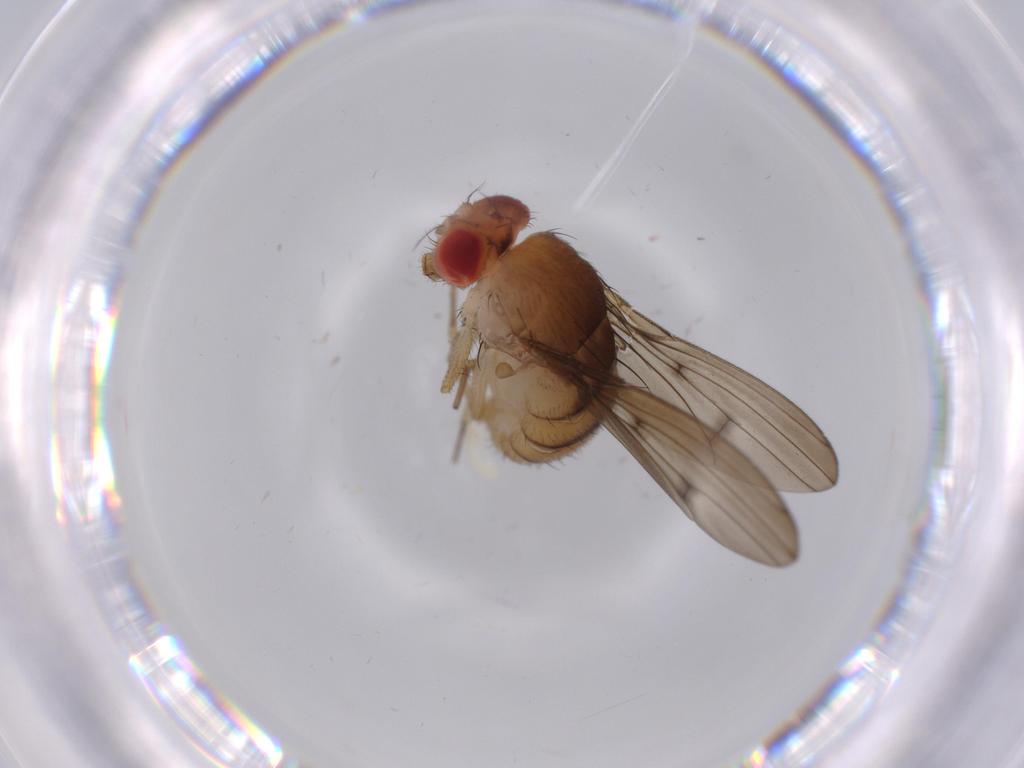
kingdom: Animalia
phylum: Arthropoda
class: Insecta
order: Diptera
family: Drosophilidae
